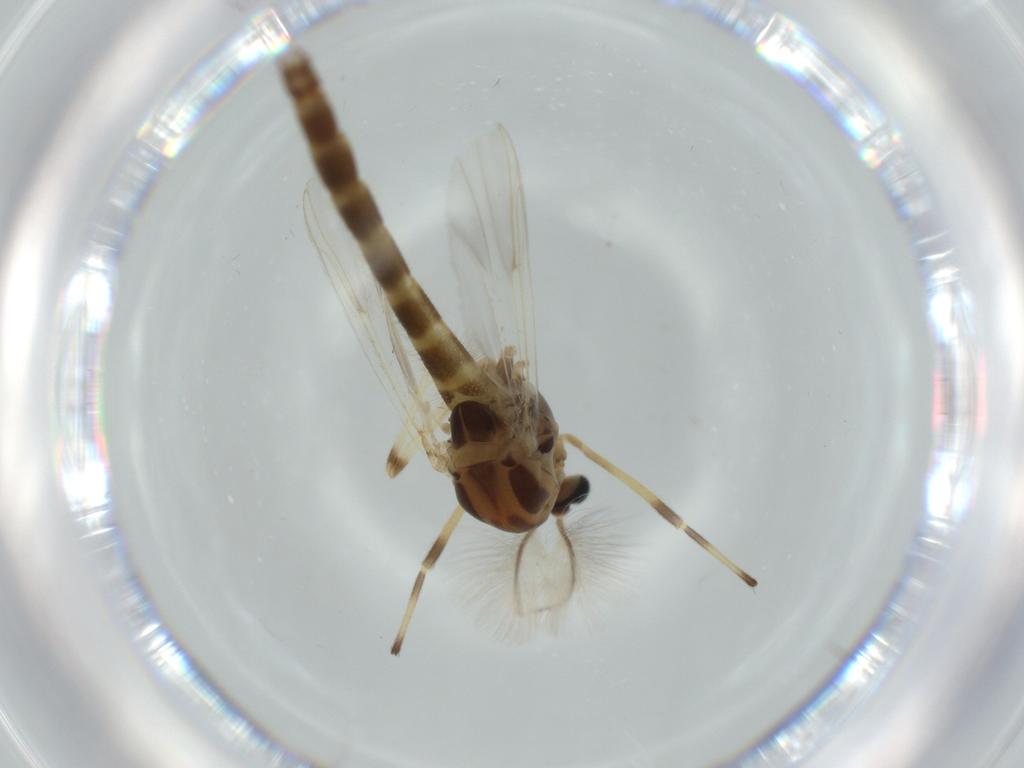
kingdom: Animalia
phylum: Arthropoda
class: Insecta
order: Diptera
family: Chironomidae
